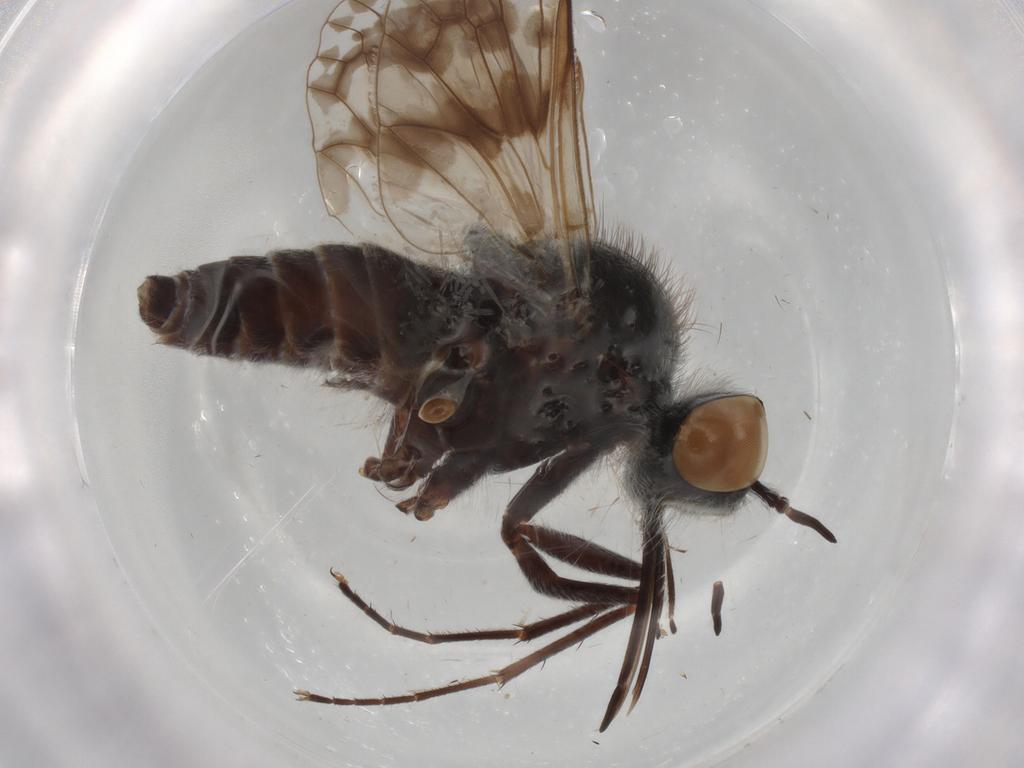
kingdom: Animalia
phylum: Arthropoda
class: Insecta
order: Diptera
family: Bombyliidae
